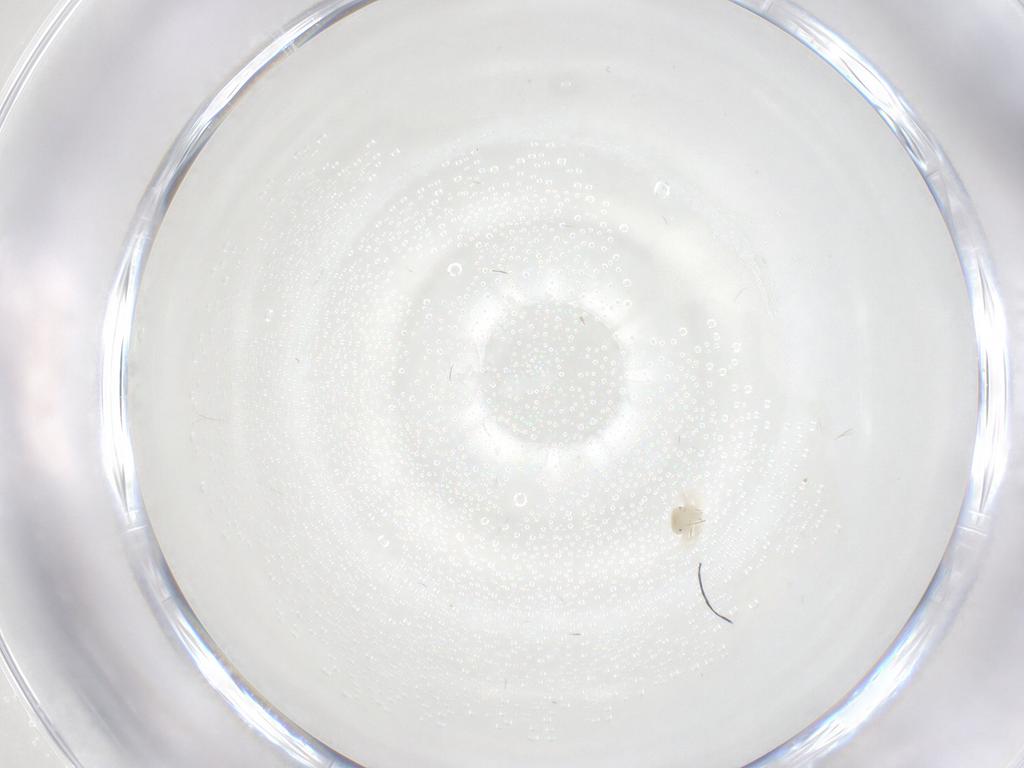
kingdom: Animalia
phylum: Arthropoda
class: Arachnida
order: Trombidiformes
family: Anystidae
